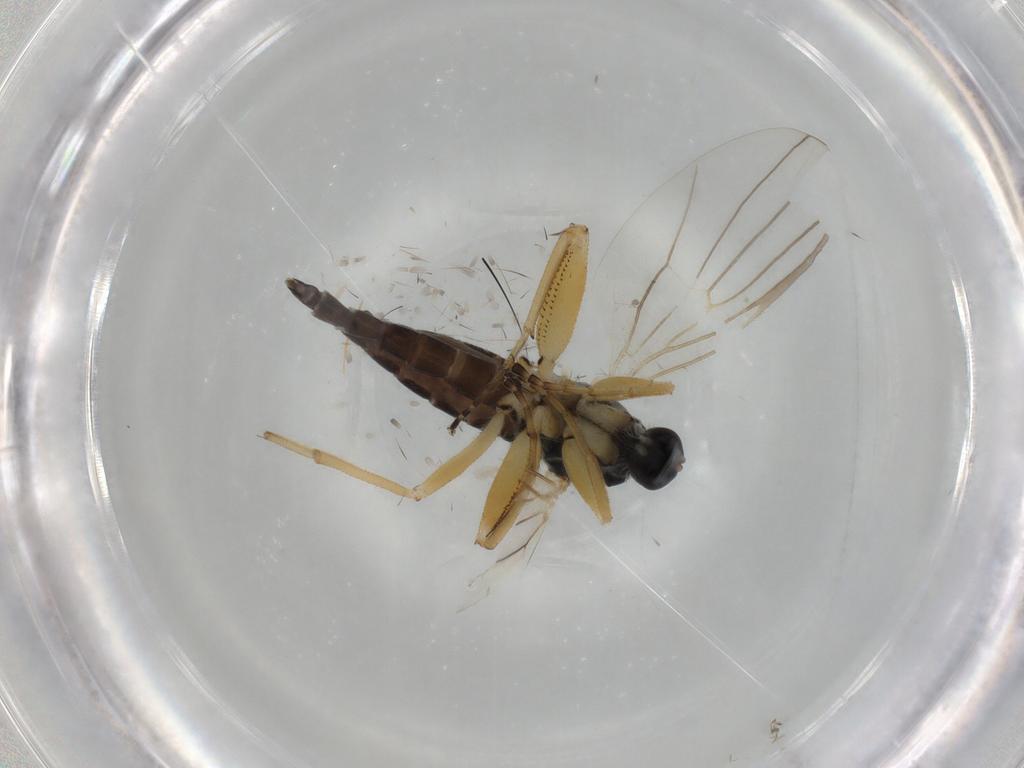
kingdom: Animalia
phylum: Arthropoda
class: Insecta
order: Diptera
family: Hybotidae
